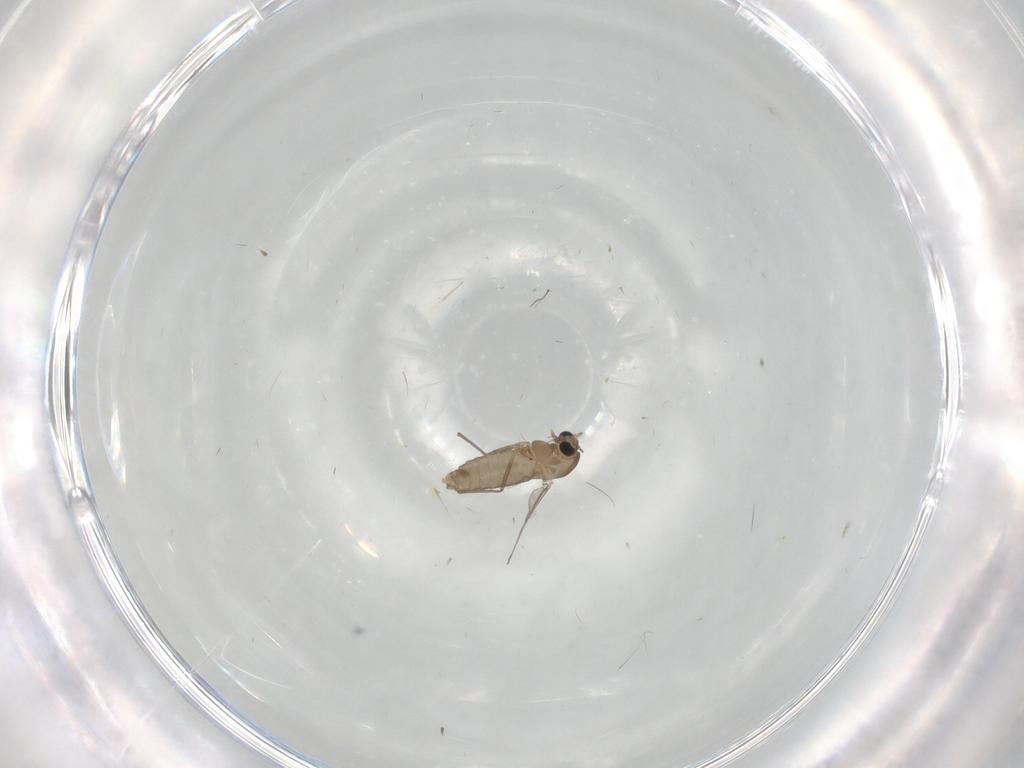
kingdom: Animalia
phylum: Arthropoda
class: Insecta
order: Diptera
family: Chironomidae
